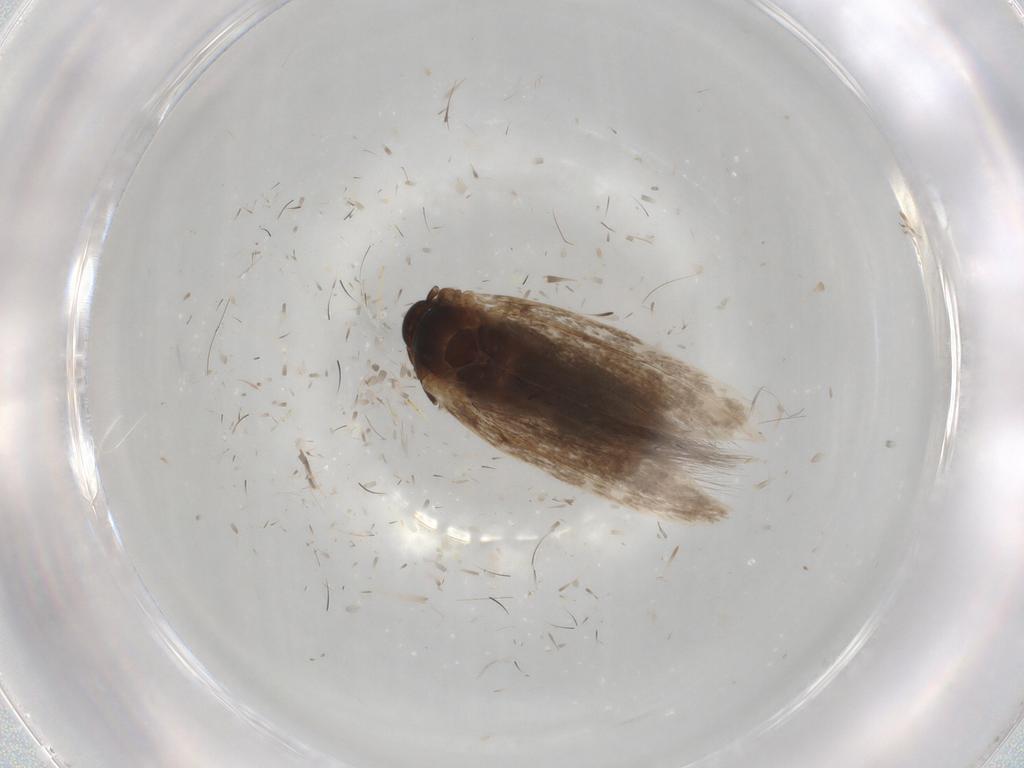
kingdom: Animalia
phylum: Arthropoda
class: Insecta
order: Lepidoptera
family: Scythrididae
